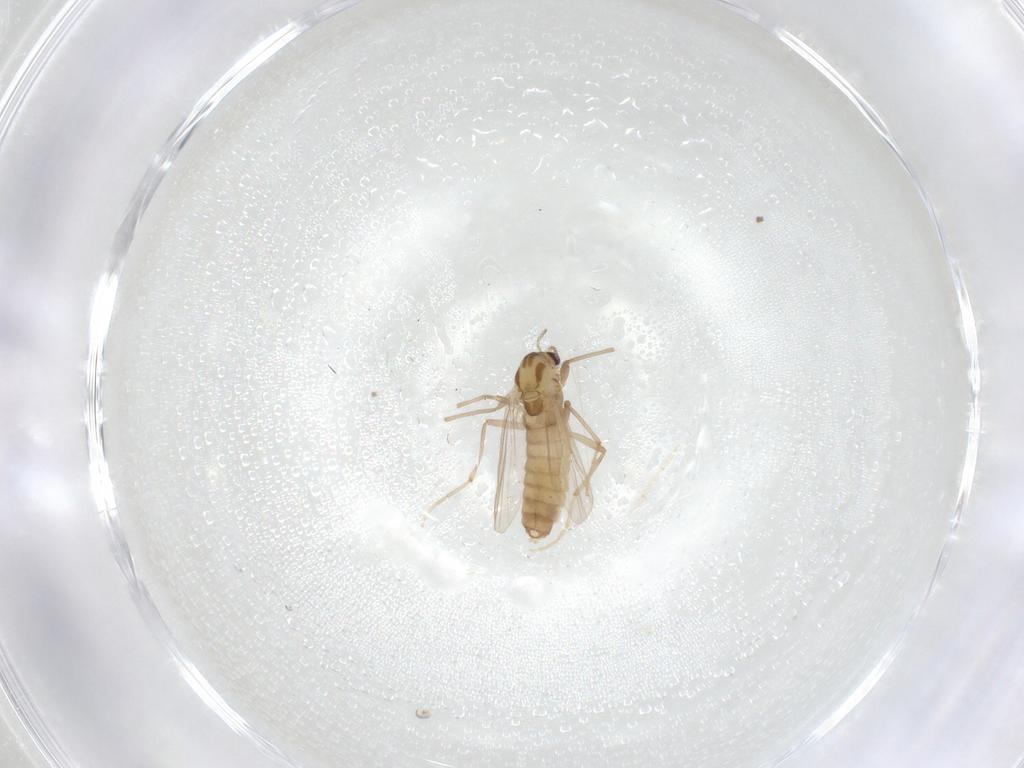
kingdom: Animalia
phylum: Arthropoda
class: Insecta
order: Diptera
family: Chironomidae
